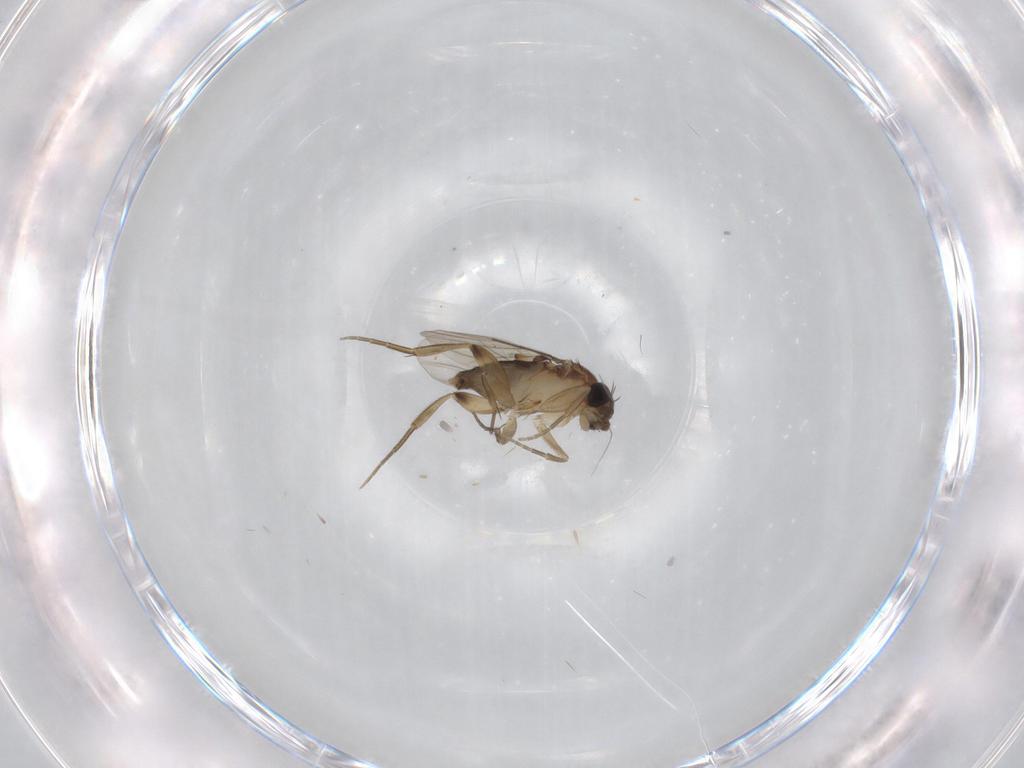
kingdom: Animalia
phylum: Arthropoda
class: Insecta
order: Diptera
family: Phoridae
